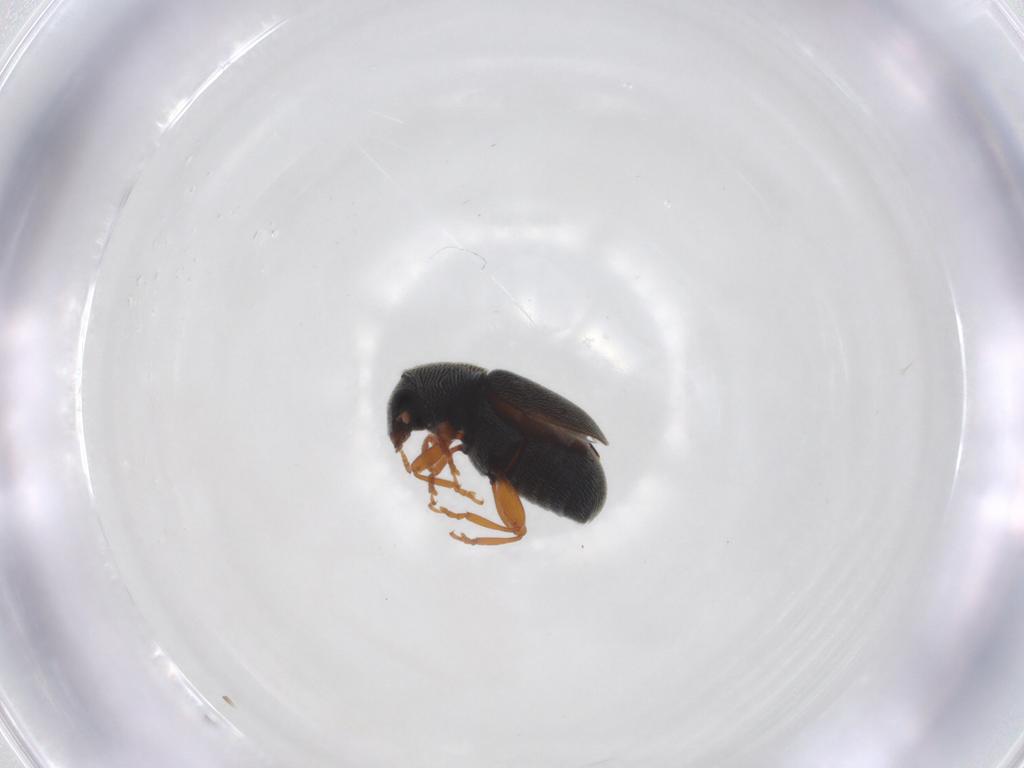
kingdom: Animalia
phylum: Arthropoda
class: Insecta
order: Coleoptera
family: Anthribidae
